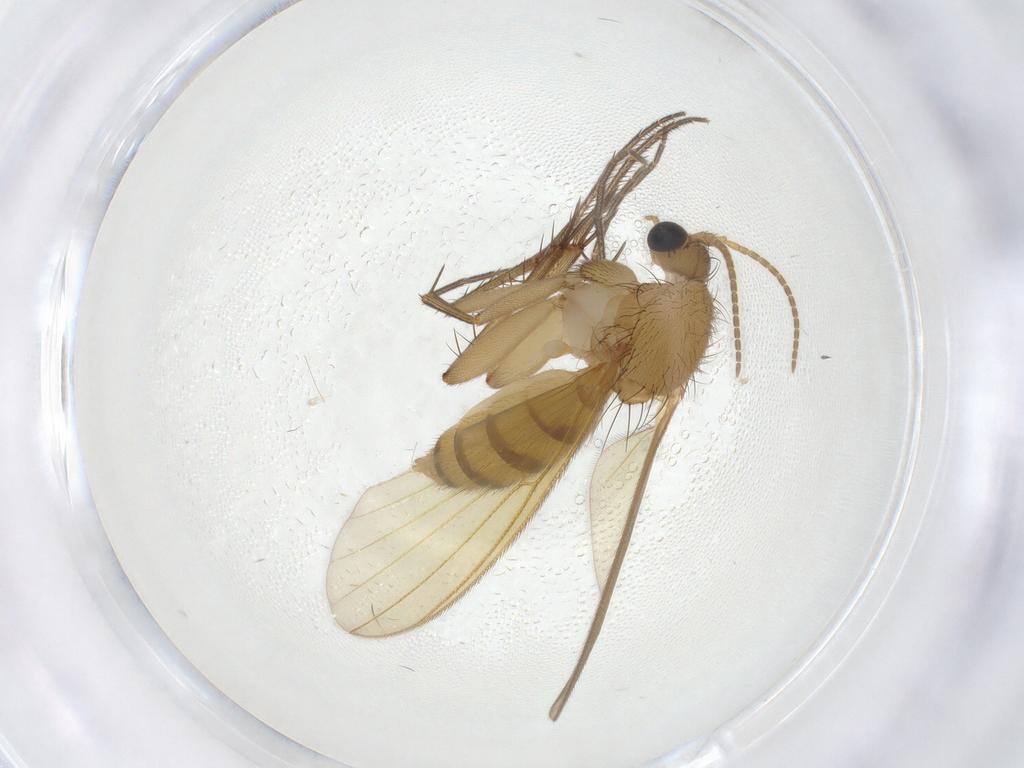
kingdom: Animalia
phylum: Arthropoda
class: Insecta
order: Diptera
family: Mycetophilidae
